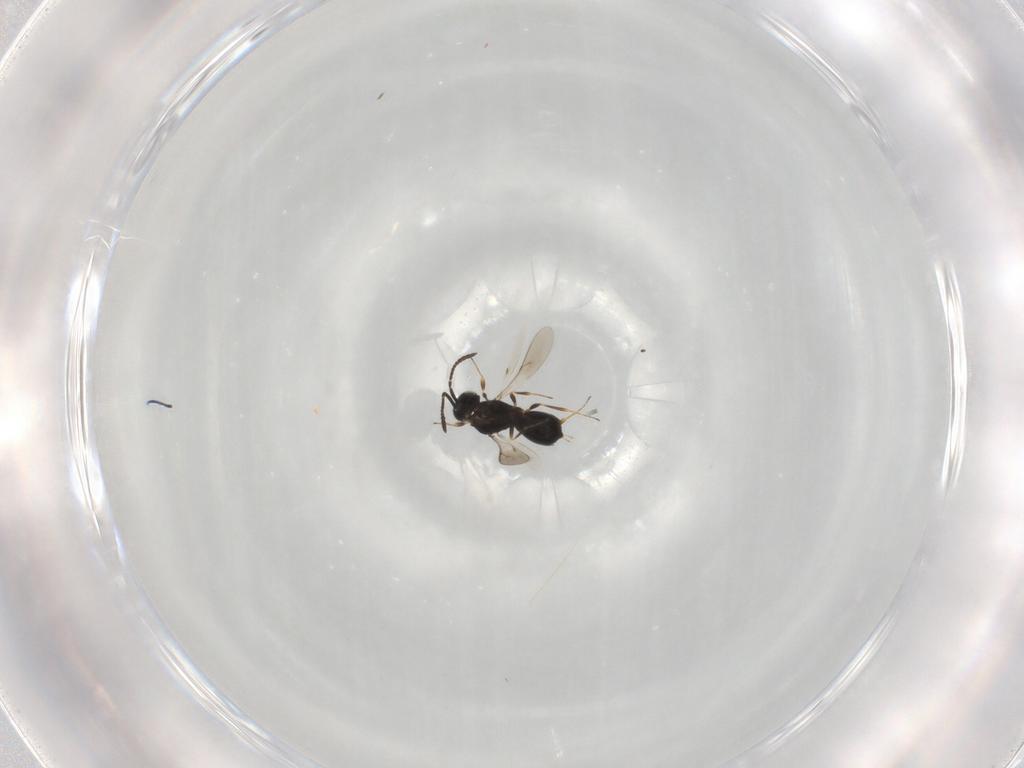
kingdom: Animalia
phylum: Arthropoda
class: Insecta
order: Hymenoptera
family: Scelionidae
